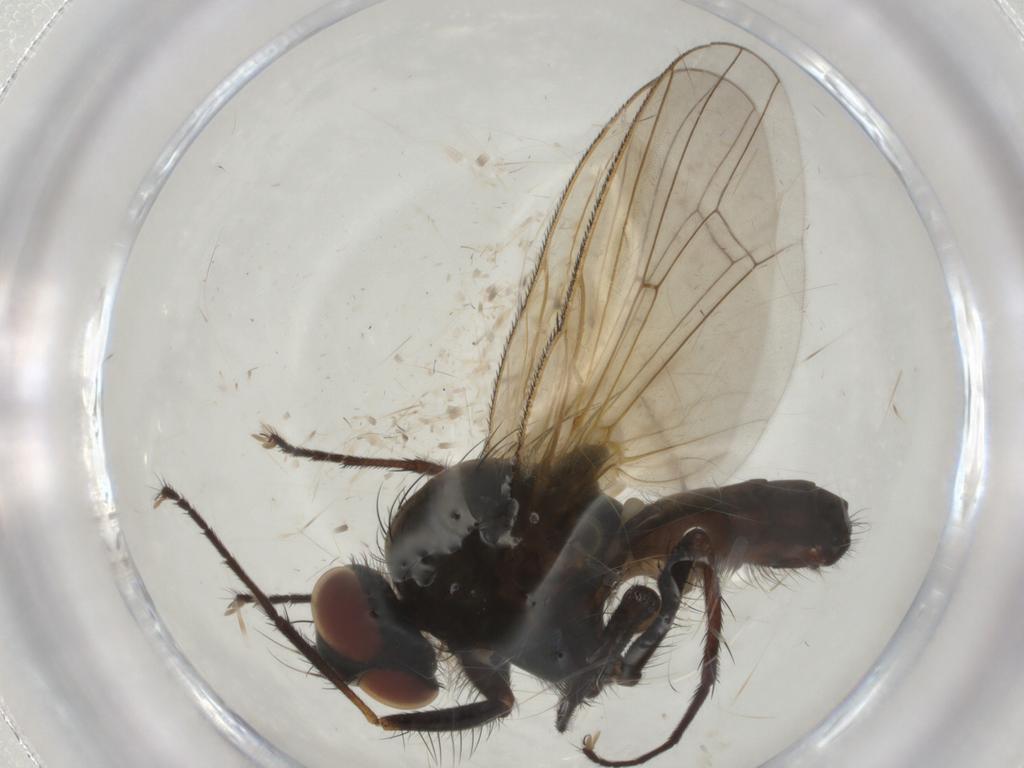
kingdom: Animalia
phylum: Arthropoda
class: Insecta
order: Diptera
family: Anthomyiidae
